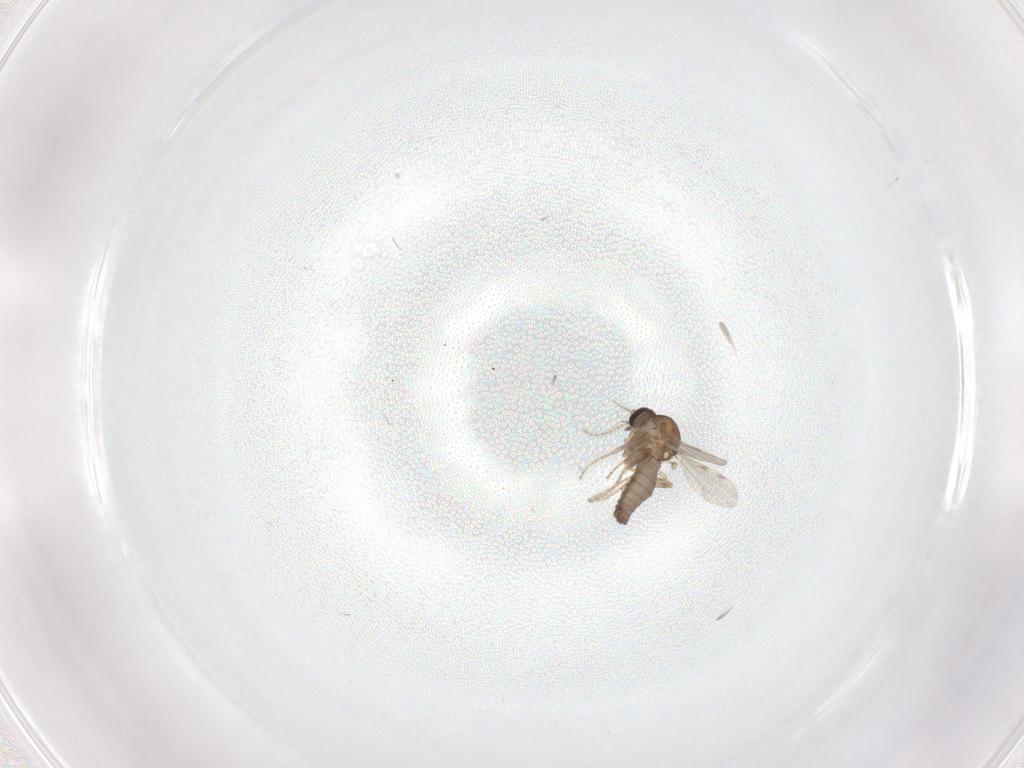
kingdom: Animalia
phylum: Arthropoda
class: Insecta
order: Diptera
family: Ceratopogonidae
